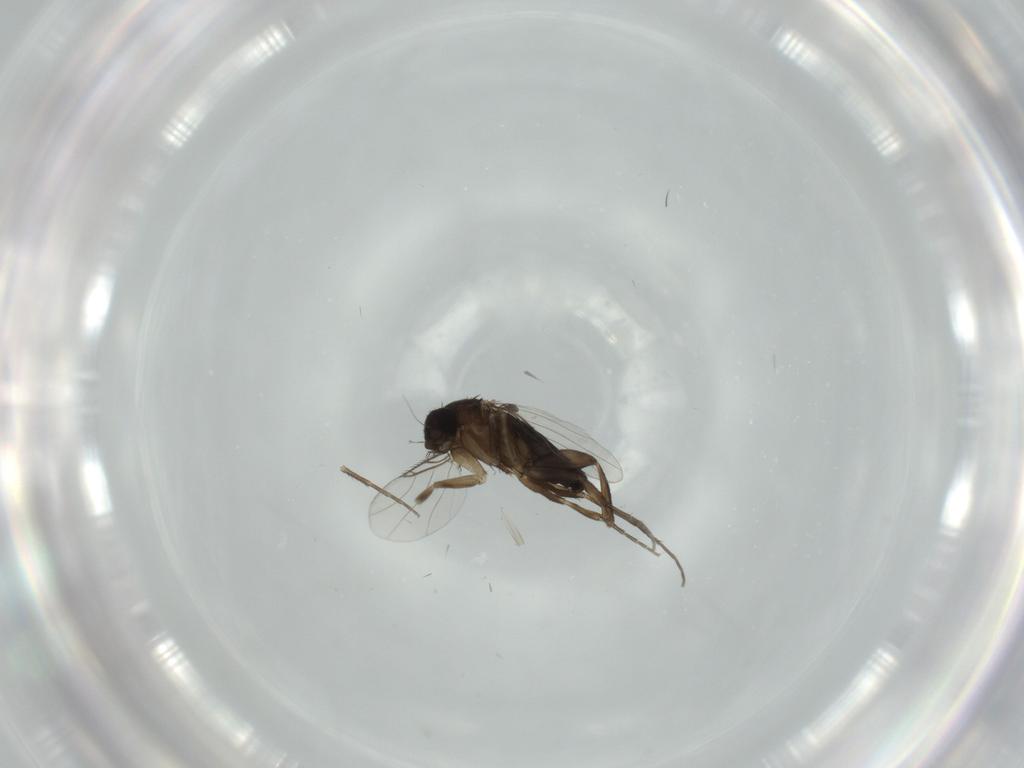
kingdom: Animalia
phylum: Arthropoda
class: Insecta
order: Diptera
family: Phoridae
